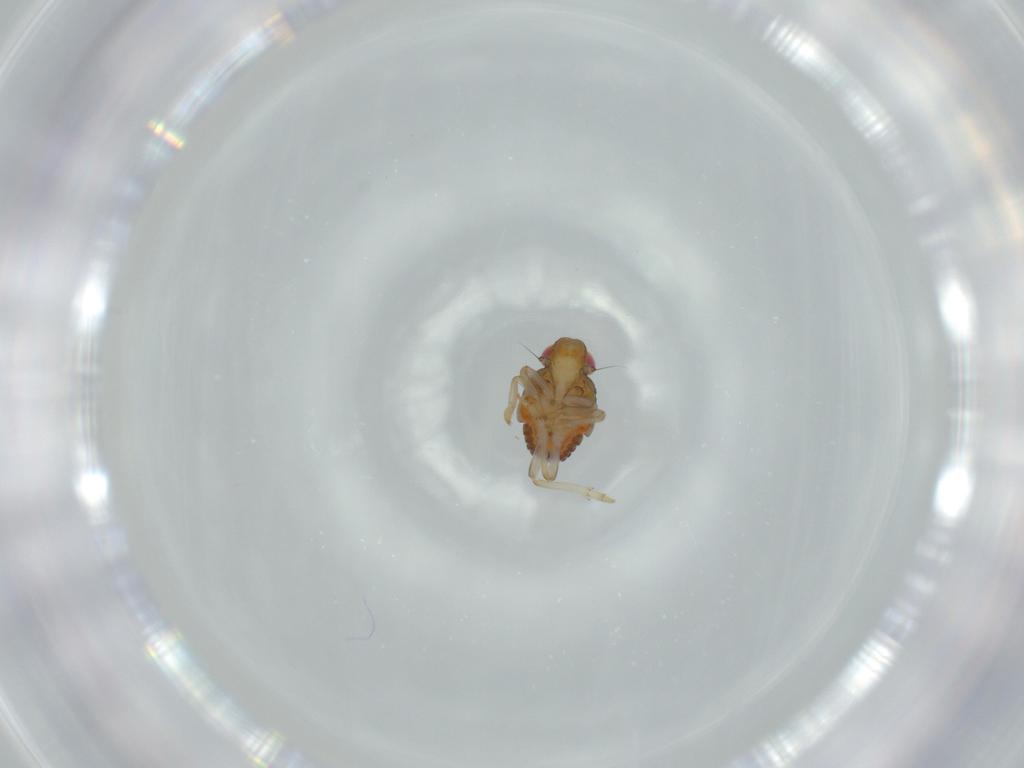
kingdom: Animalia
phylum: Arthropoda
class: Insecta
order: Hemiptera
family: Issidae
